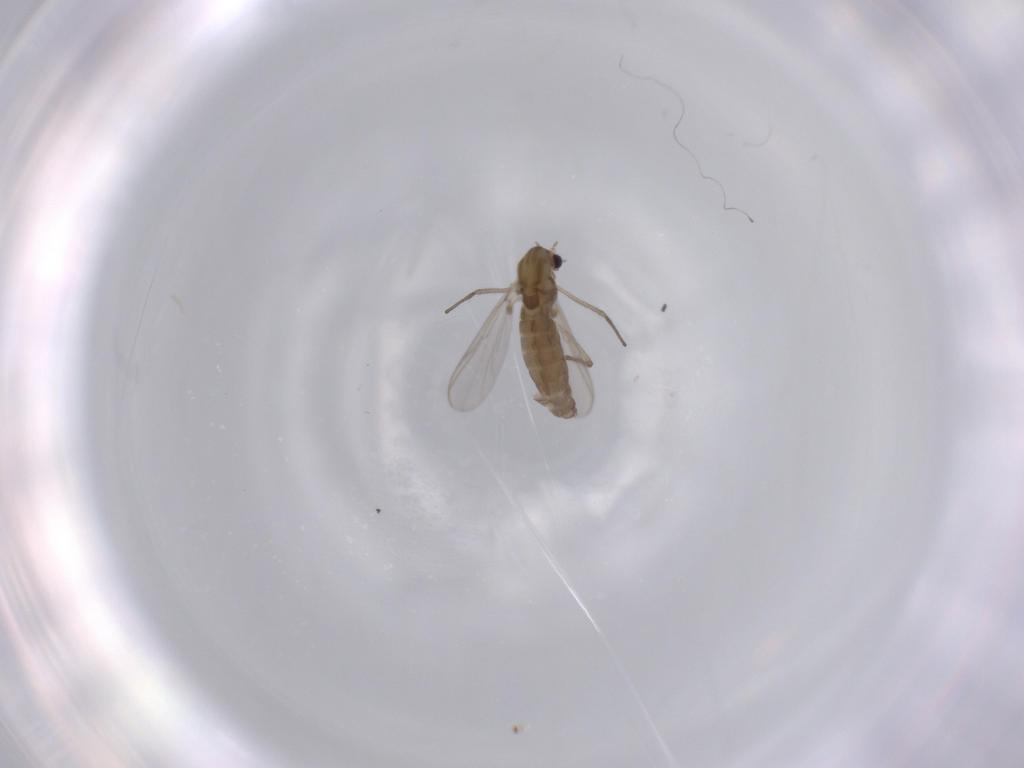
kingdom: Animalia
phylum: Arthropoda
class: Insecta
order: Diptera
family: Chironomidae
